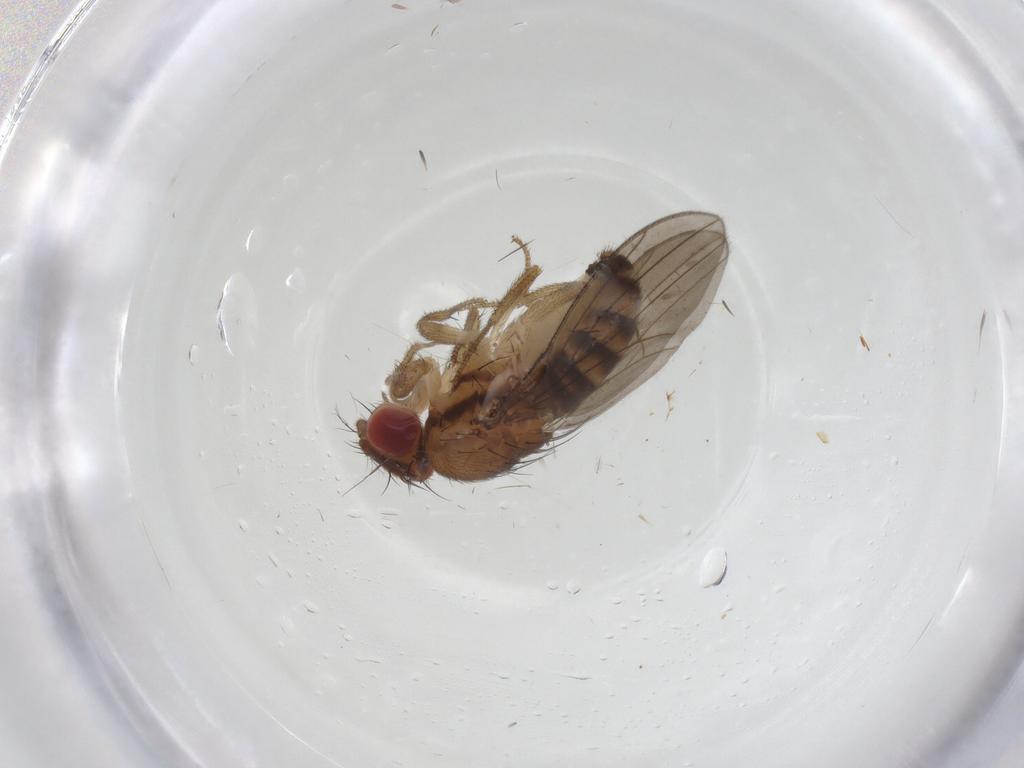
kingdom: Animalia
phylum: Arthropoda
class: Insecta
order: Diptera
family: Drosophilidae
